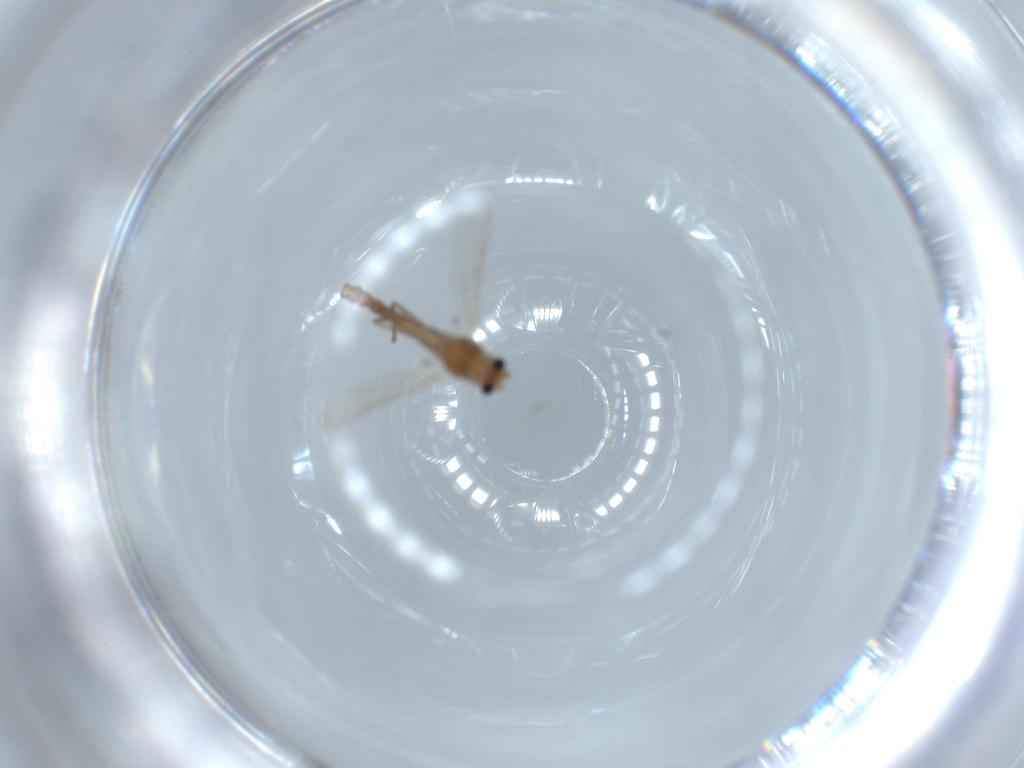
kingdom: Animalia
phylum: Arthropoda
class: Insecta
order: Diptera
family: Chironomidae
